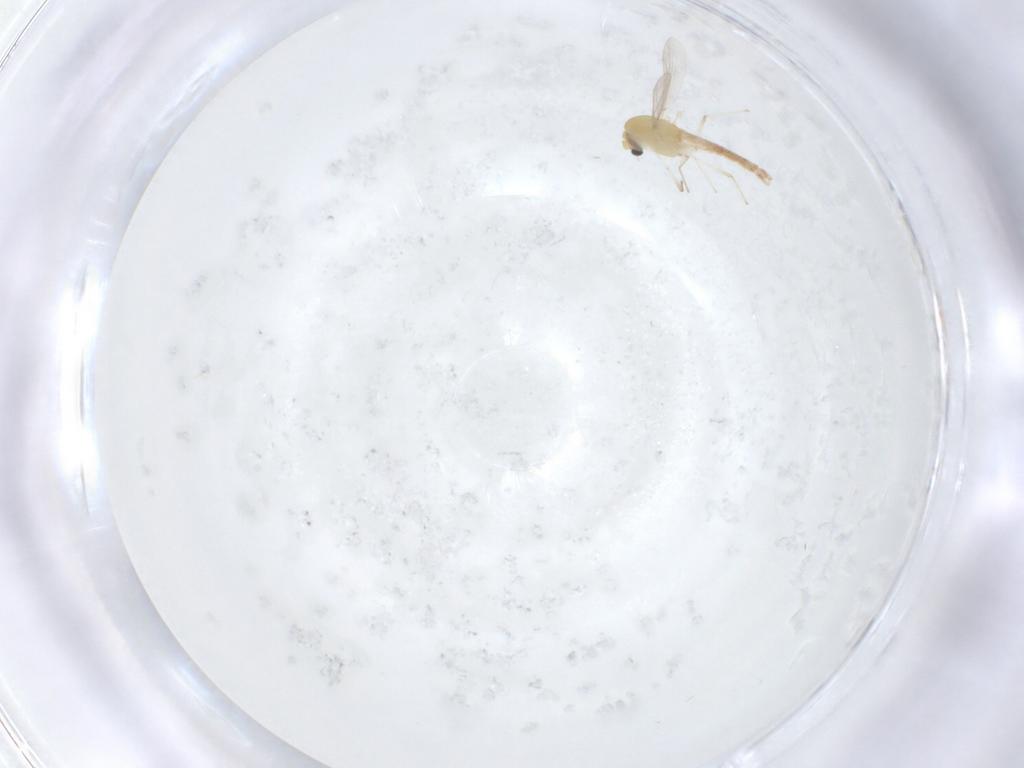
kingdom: Animalia
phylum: Arthropoda
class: Insecta
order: Diptera
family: Chironomidae
